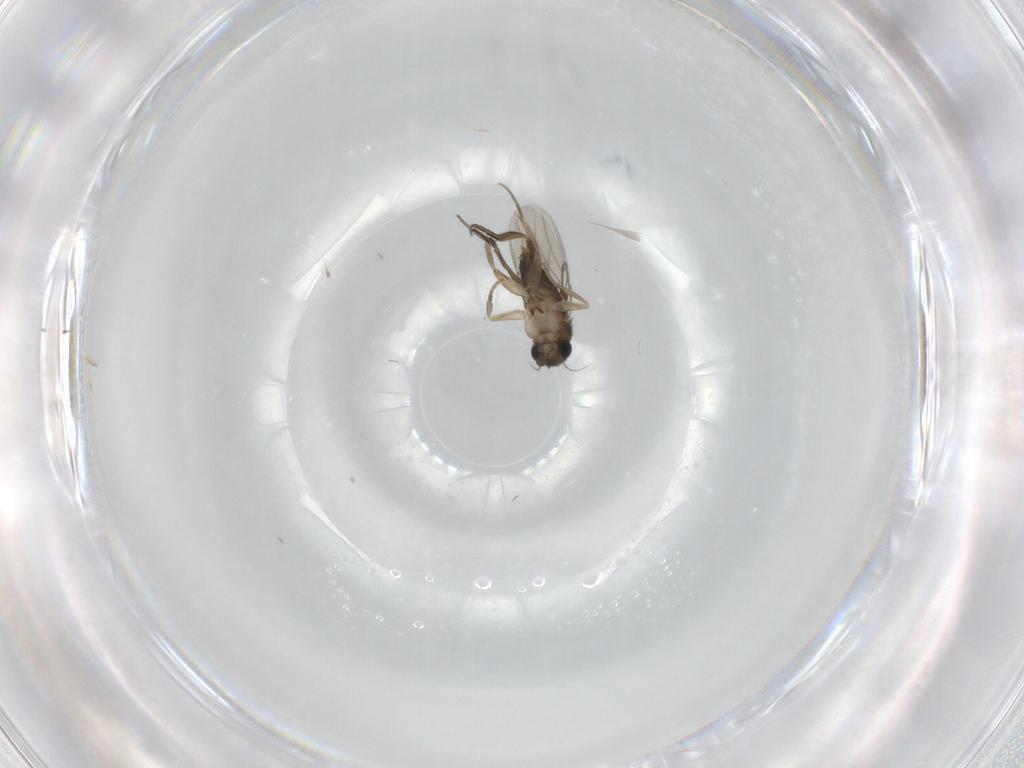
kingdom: Animalia
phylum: Arthropoda
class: Insecta
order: Diptera
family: Phoridae
